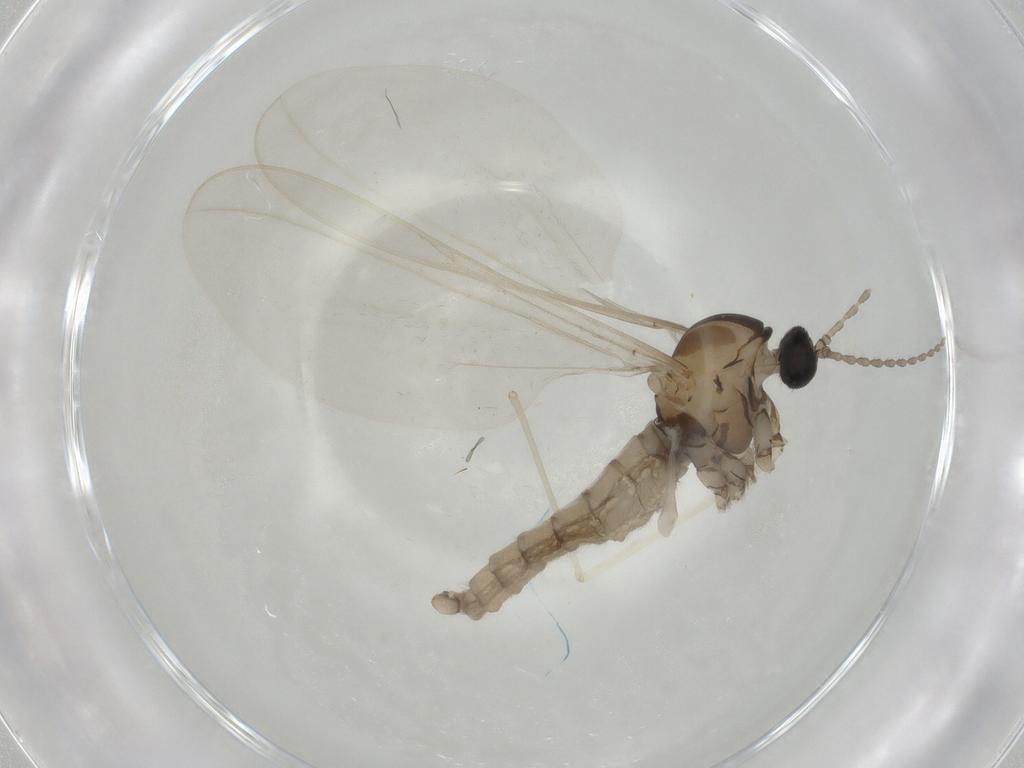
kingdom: Animalia
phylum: Arthropoda
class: Insecta
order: Diptera
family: Cecidomyiidae
